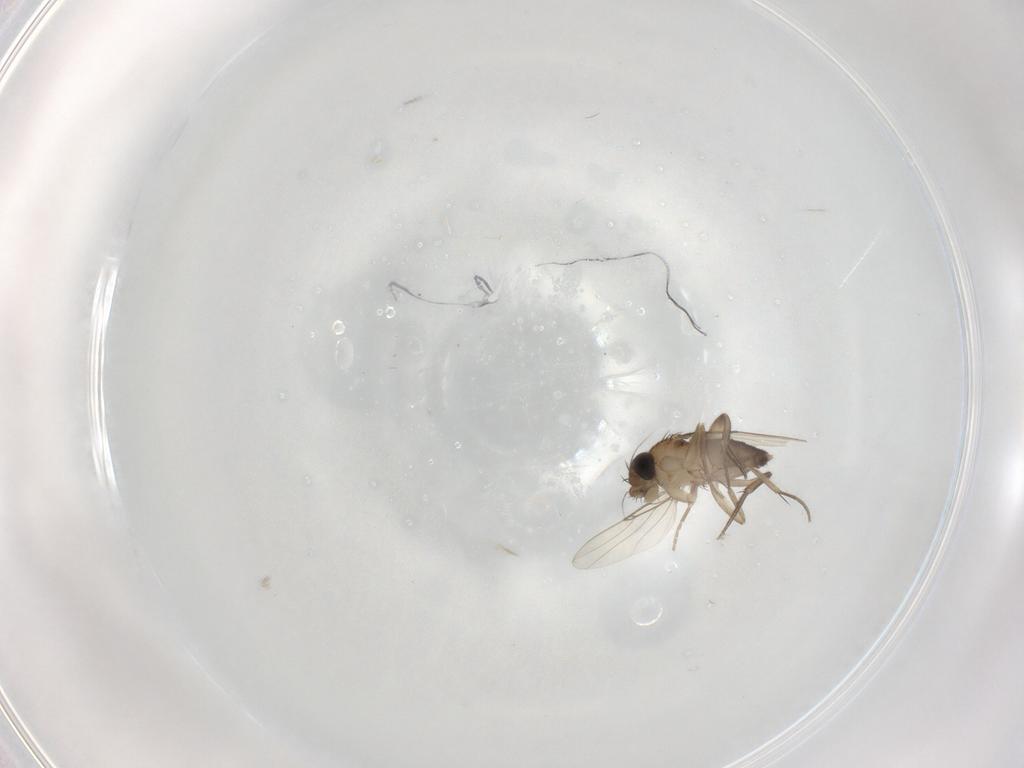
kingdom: Animalia
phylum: Arthropoda
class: Insecta
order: Diptera
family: Phoridae
